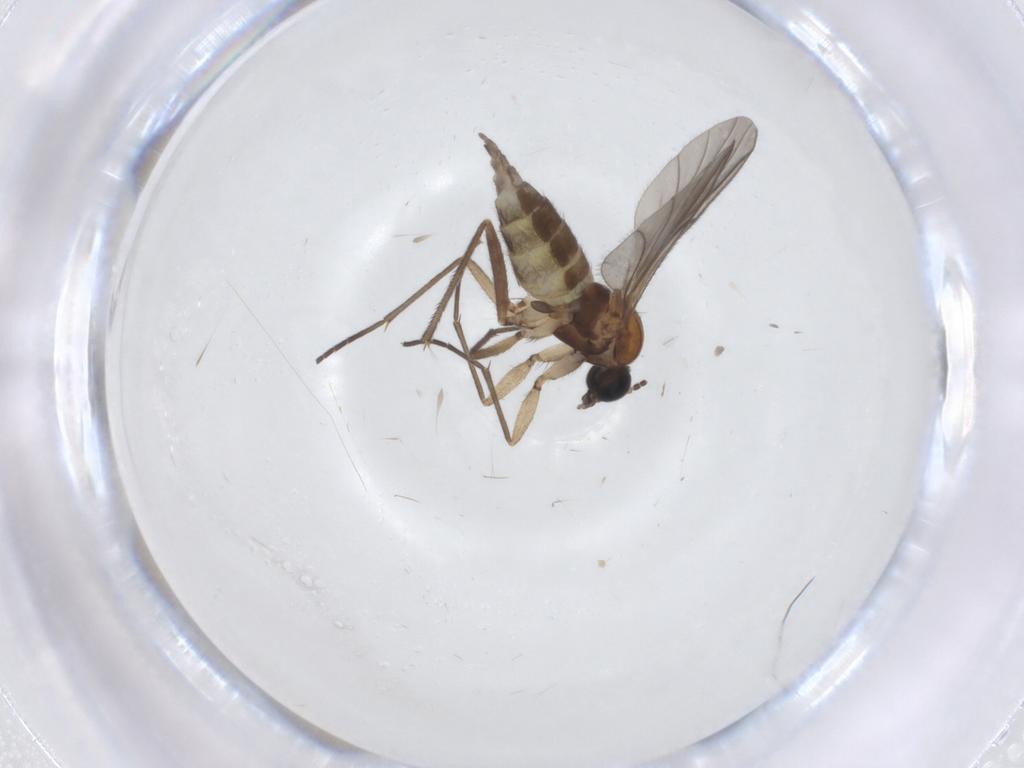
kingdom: Animalia
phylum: Arthropoda
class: Insecta
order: Diptera
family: Sciaridae
